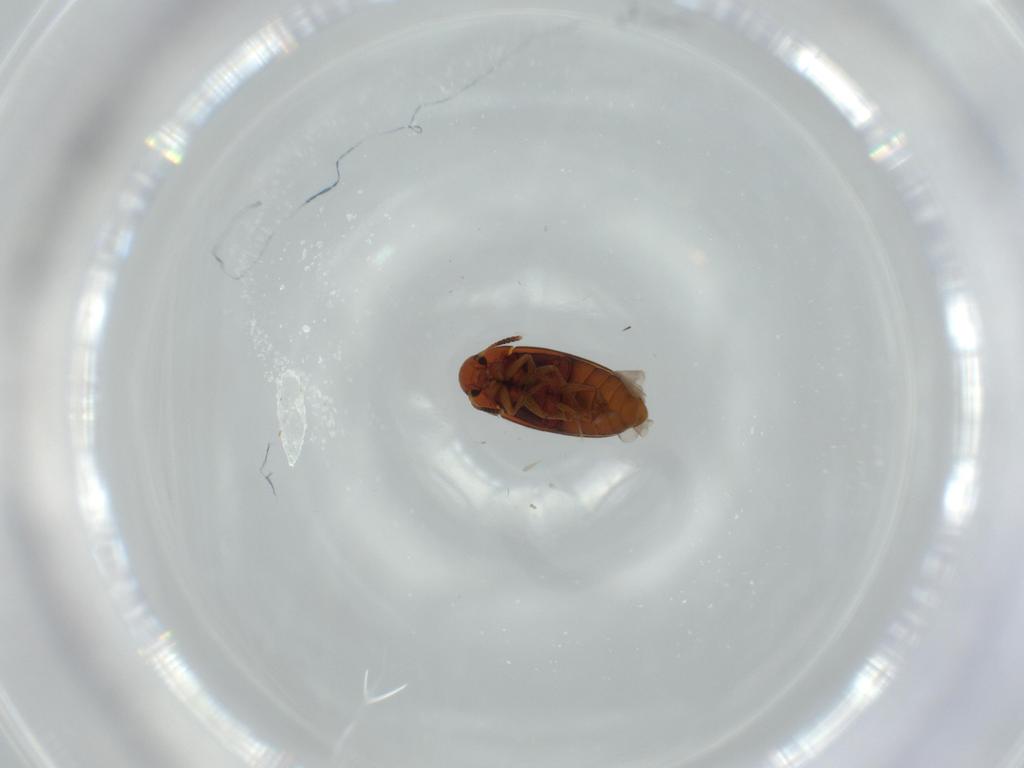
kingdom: Animalia
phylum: Arthropoda
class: Insecta
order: Coleoptera
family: Scraptiidae
